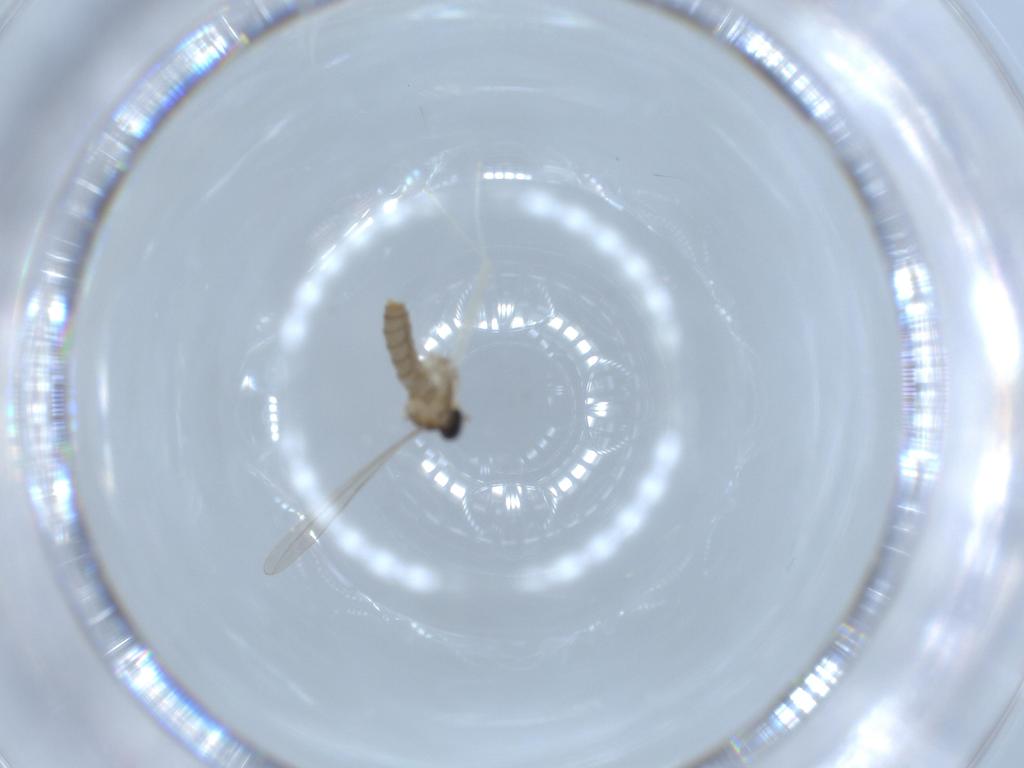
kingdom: Animalia
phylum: Arthropoda
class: Insecta
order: Diptera
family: Cecidomyiidae
